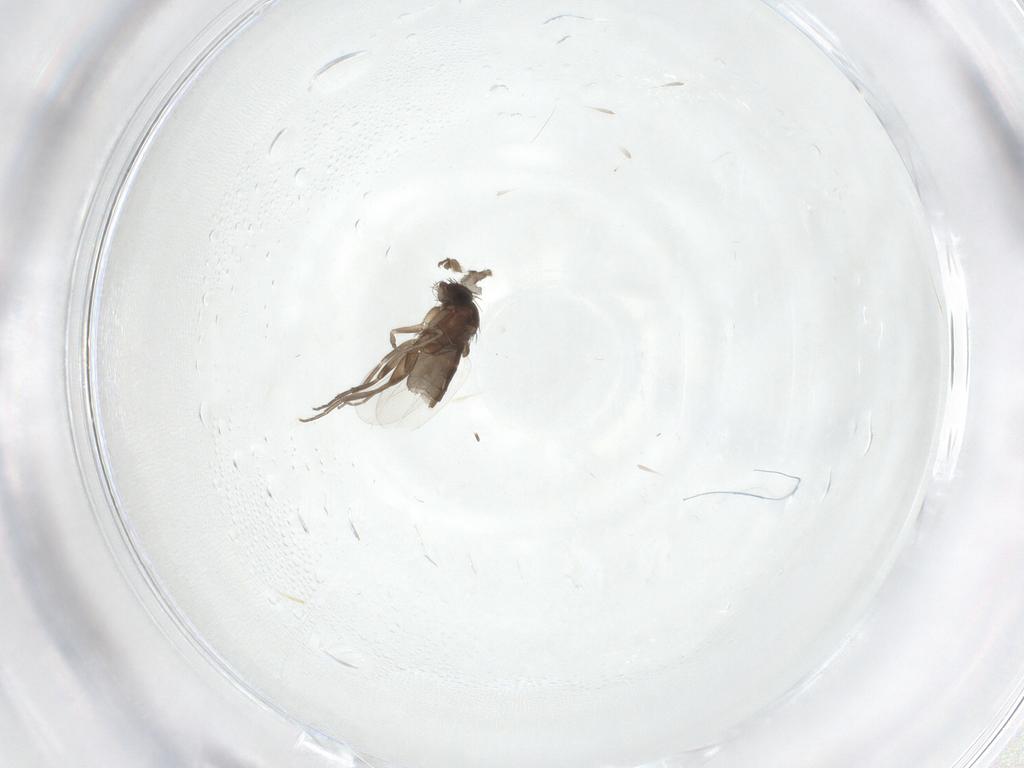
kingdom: Animalia
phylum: Arthropoda
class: Insecta
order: Diptera
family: Phoridae
